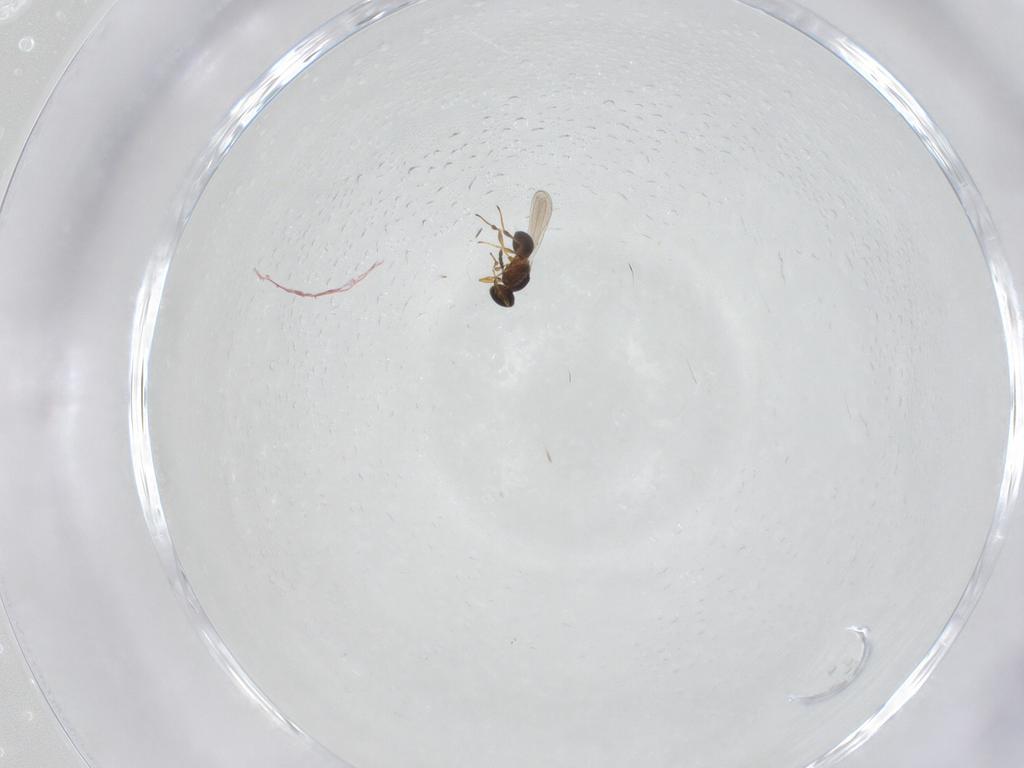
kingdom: Animalia
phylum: Arthropoda
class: Insecta
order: Hymenoptera
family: Platygastridae
